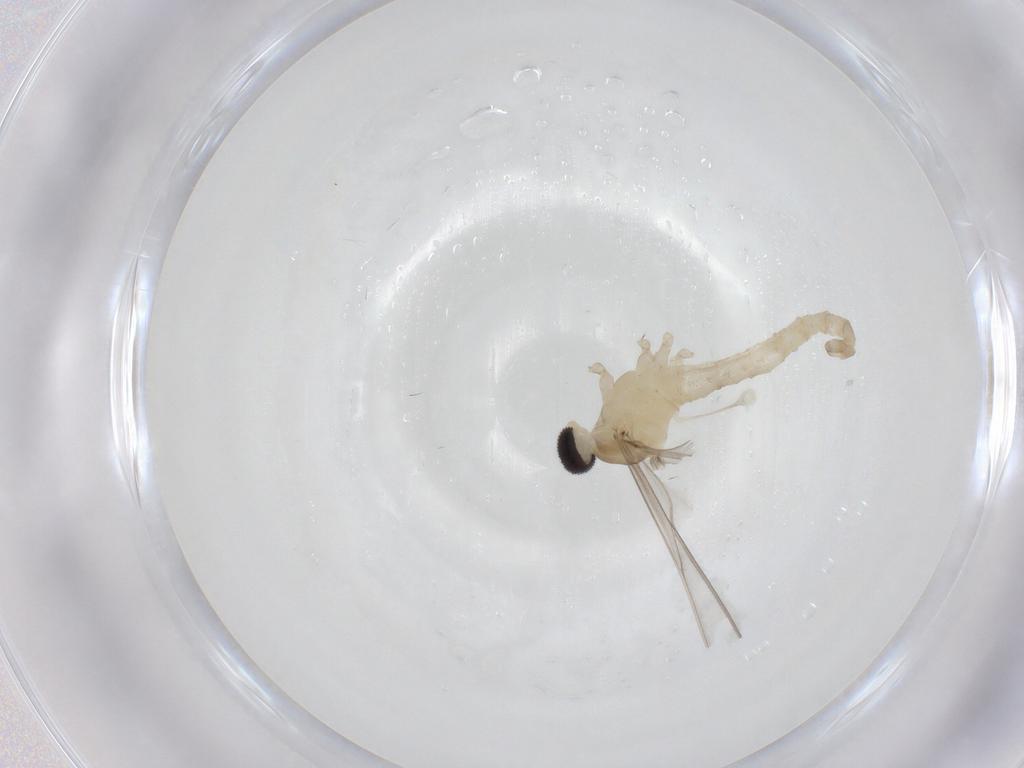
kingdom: Animalia
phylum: Arthropoda
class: Insecta
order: Diptera
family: Cecidomyiidae
